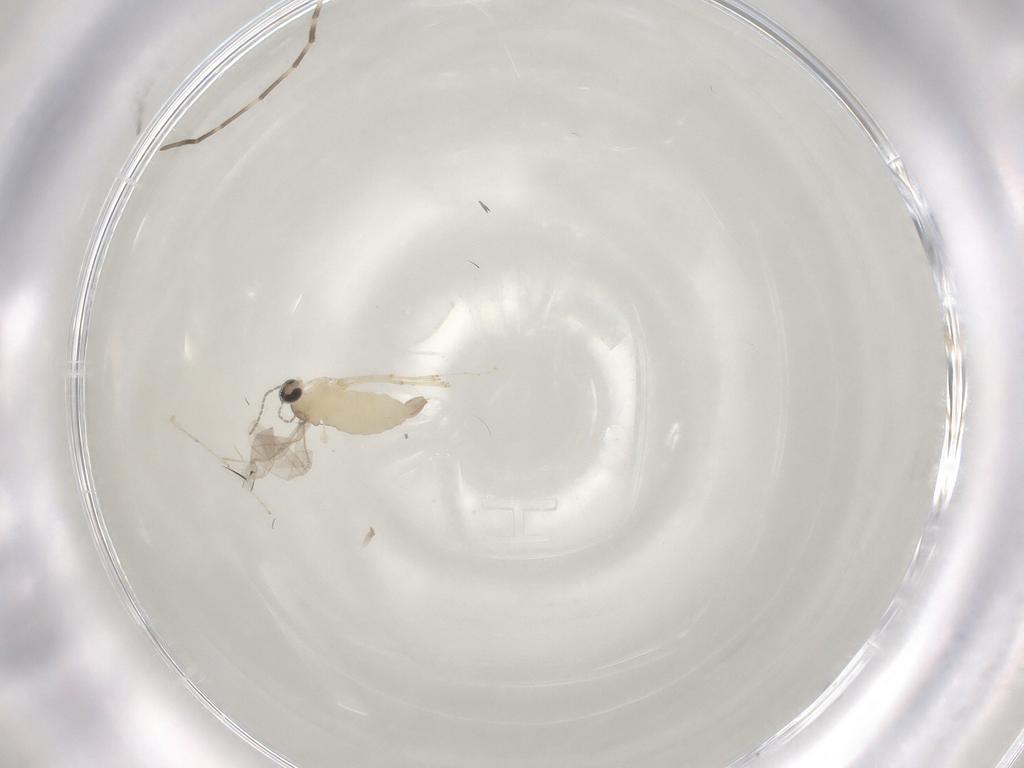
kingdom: Animalia
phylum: Arthropoda
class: Insecta
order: Diptera
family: Cecidomyiidae
